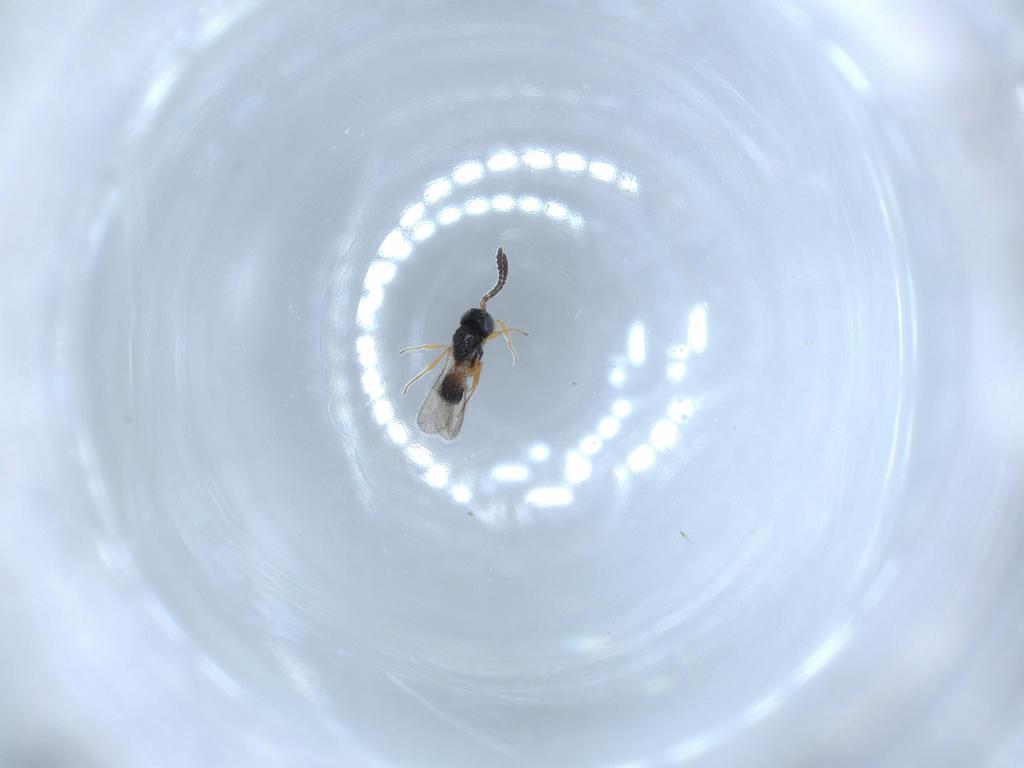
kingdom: Animalia
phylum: Arthropoda
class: Insecta
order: Hymenoptera
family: Scelionidae
